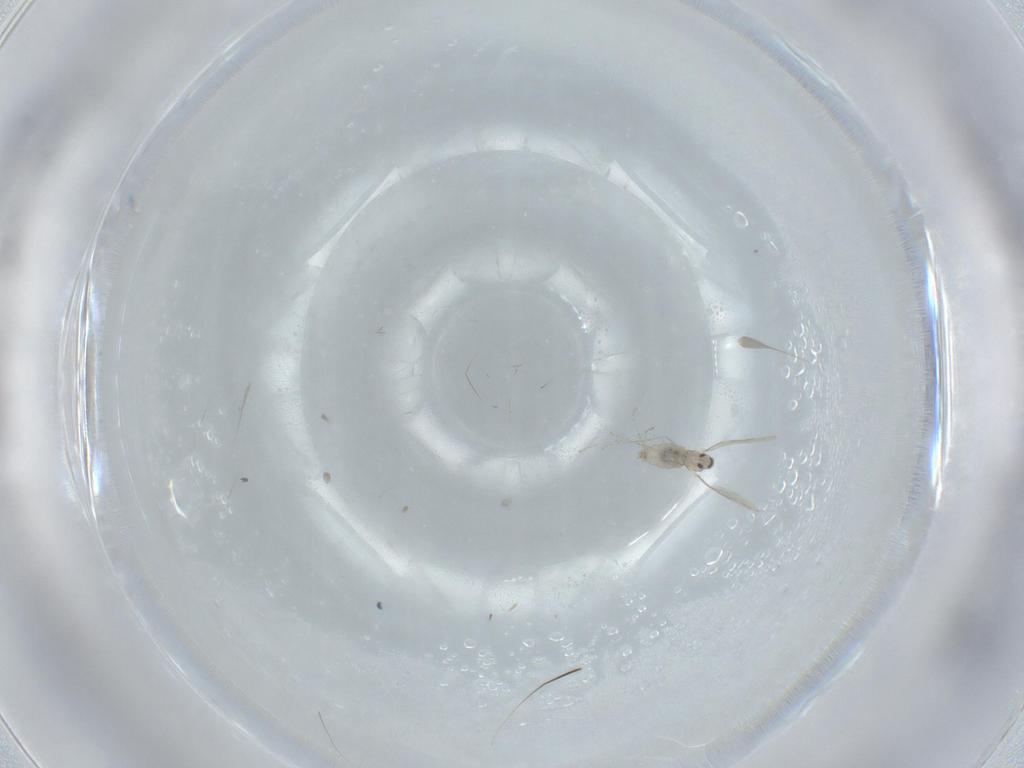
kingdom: Animalia
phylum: Arthropoda
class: Insecta
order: Diptera
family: Cecidomyiidae
